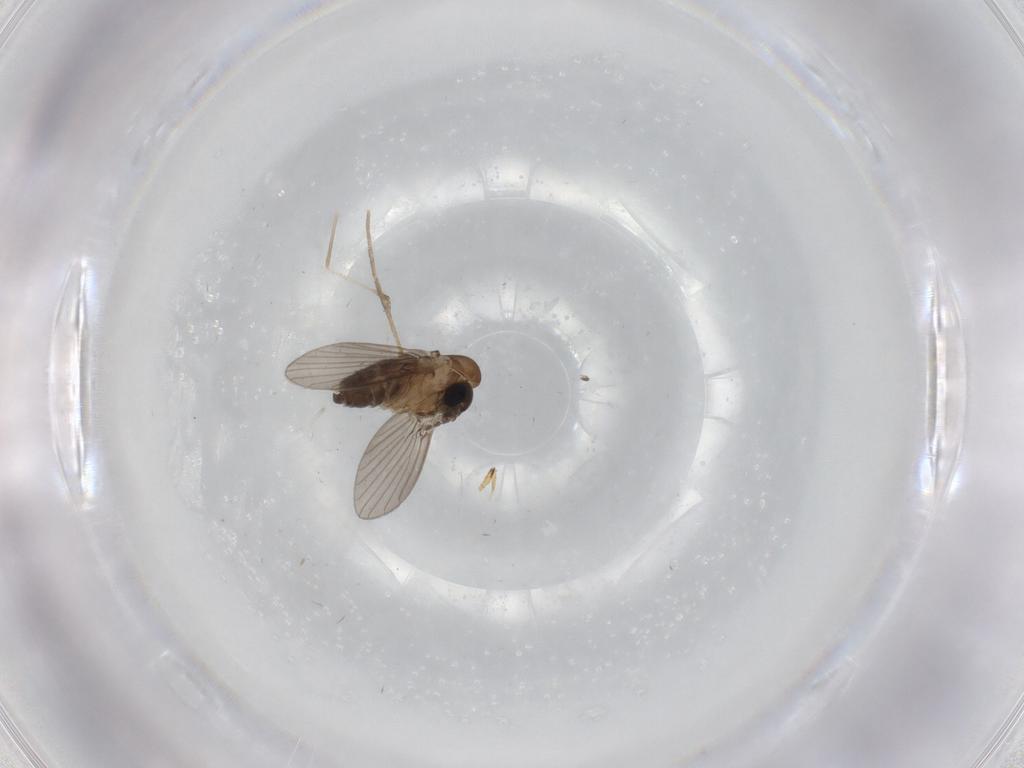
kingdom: Animalia
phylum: Arthropoda
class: Insecta
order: Diptera
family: Cecidomyiidae
